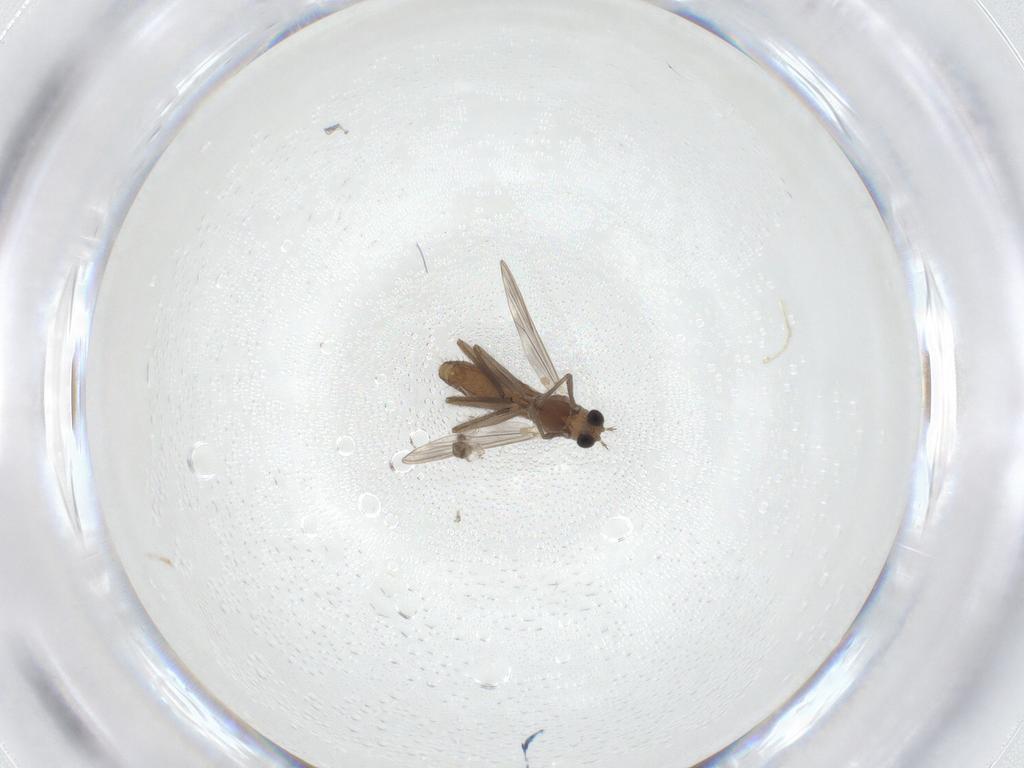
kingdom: Animalia
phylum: Arthropoda
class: Insecta
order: Diptera
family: Chironomidae
